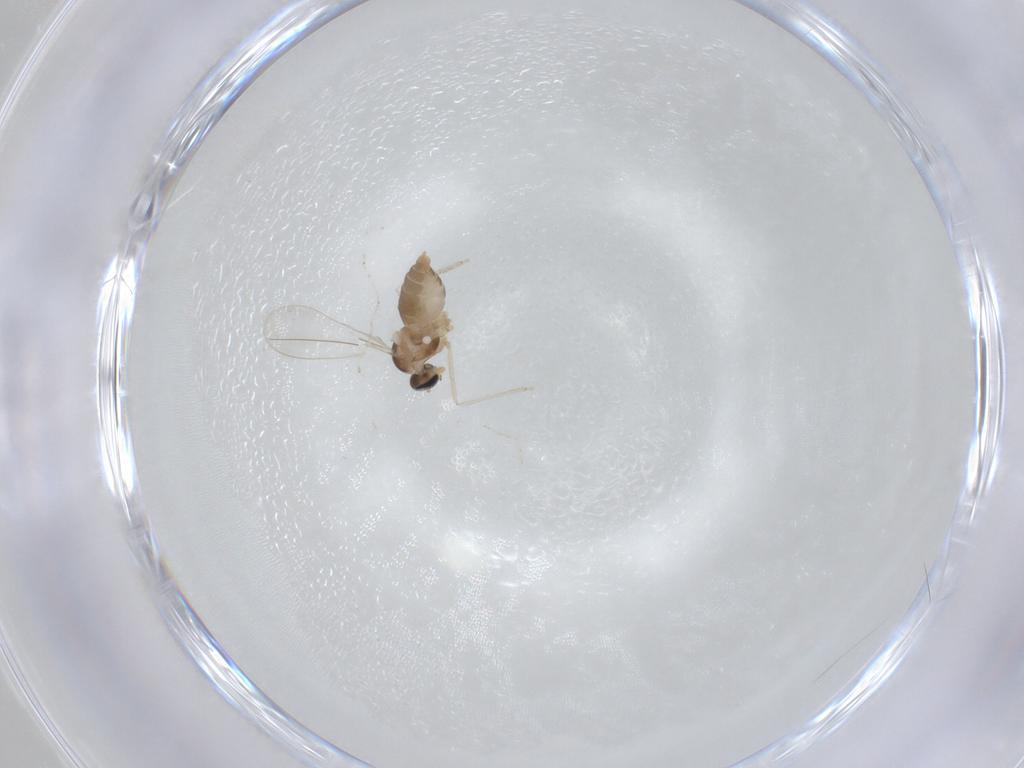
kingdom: Animalia
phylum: Arthropoda
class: Insecta
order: Diptera
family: Cecidomyiidae
